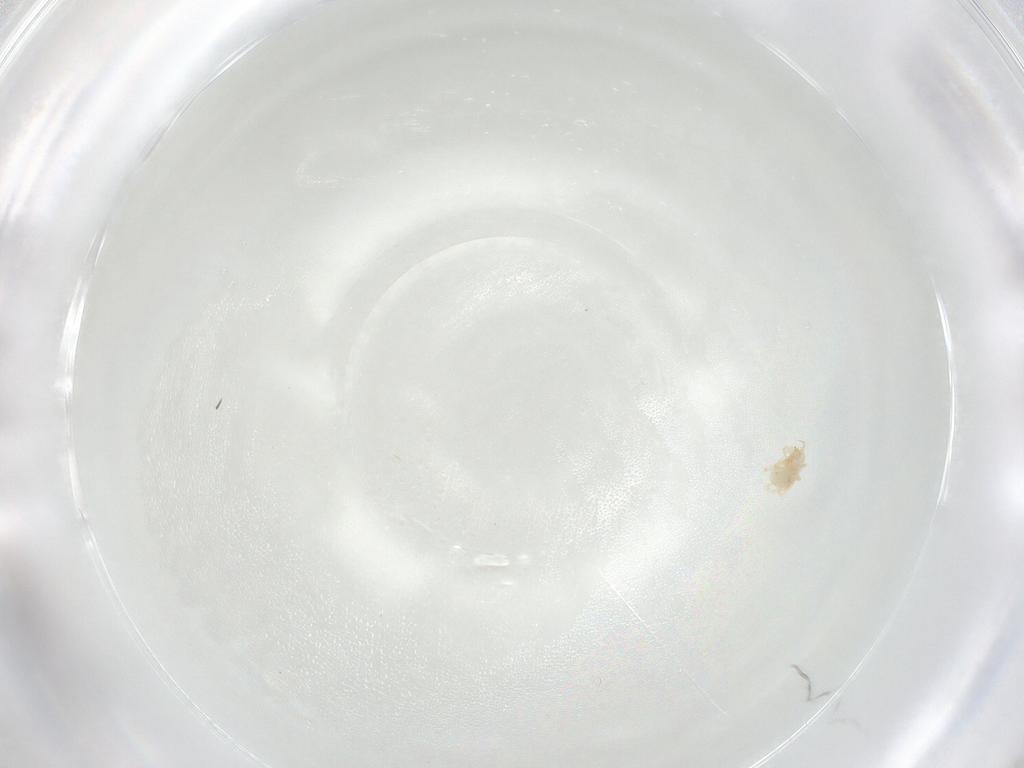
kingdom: Animalia
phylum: Arthropoda
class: Arachnida
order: Trombidiformes
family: Cunaxidae
